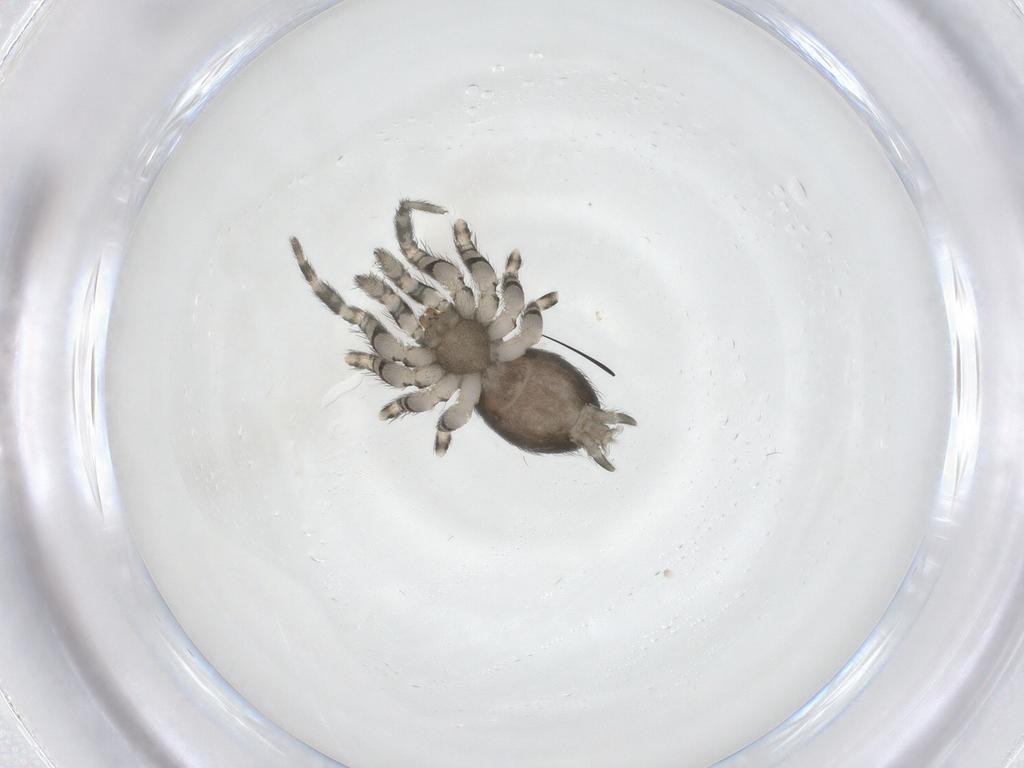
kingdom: Animalia
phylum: Arthropoda
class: Arachnida
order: Araneae
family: Oecobiidae
